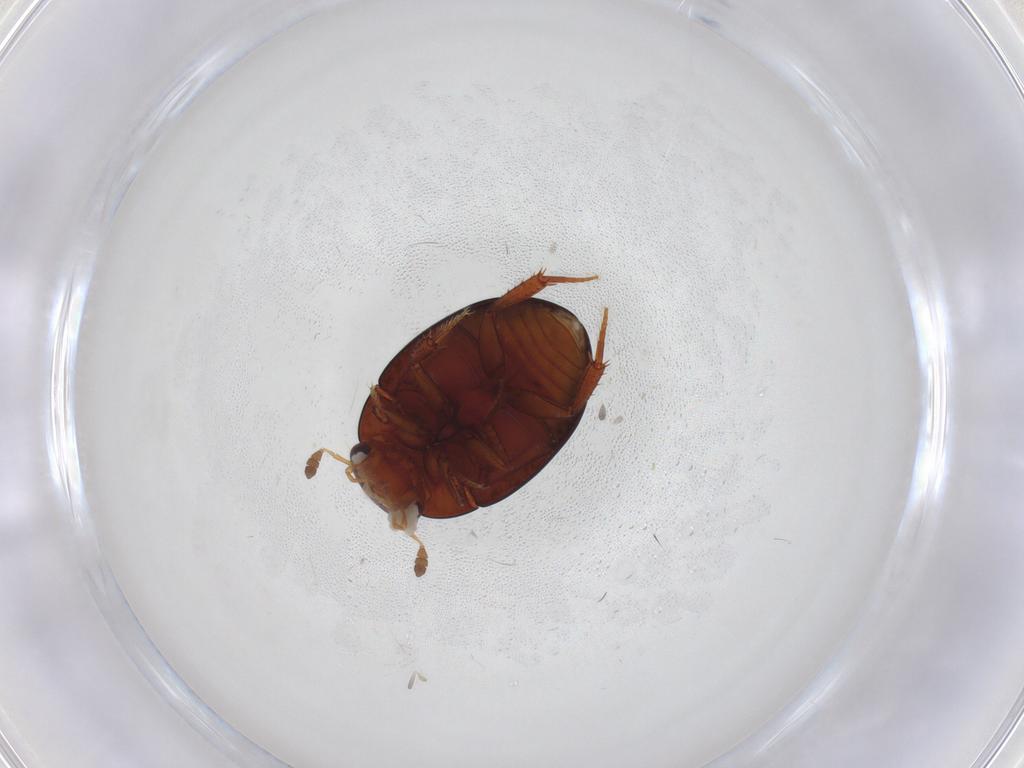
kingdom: Animalia
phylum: Arthropoda
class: Insecta
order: Coleoptera
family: Hydrophilidae
